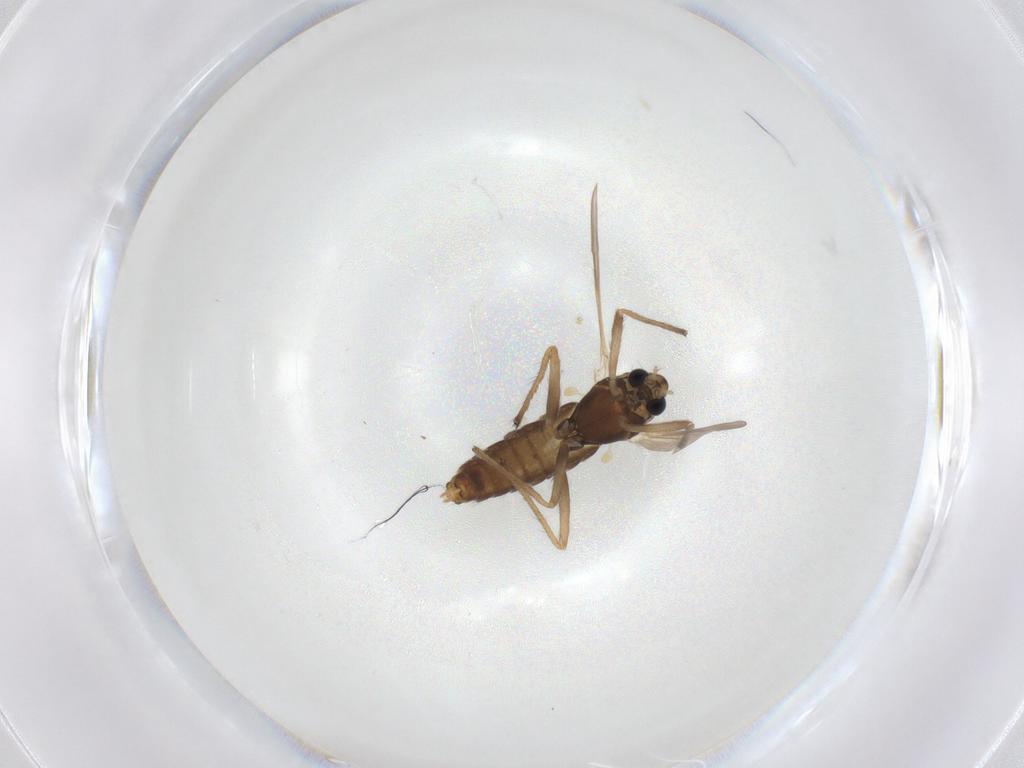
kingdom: Animalia
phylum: Arthropoda
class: Insecta
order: Diptera
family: Chironomidae
